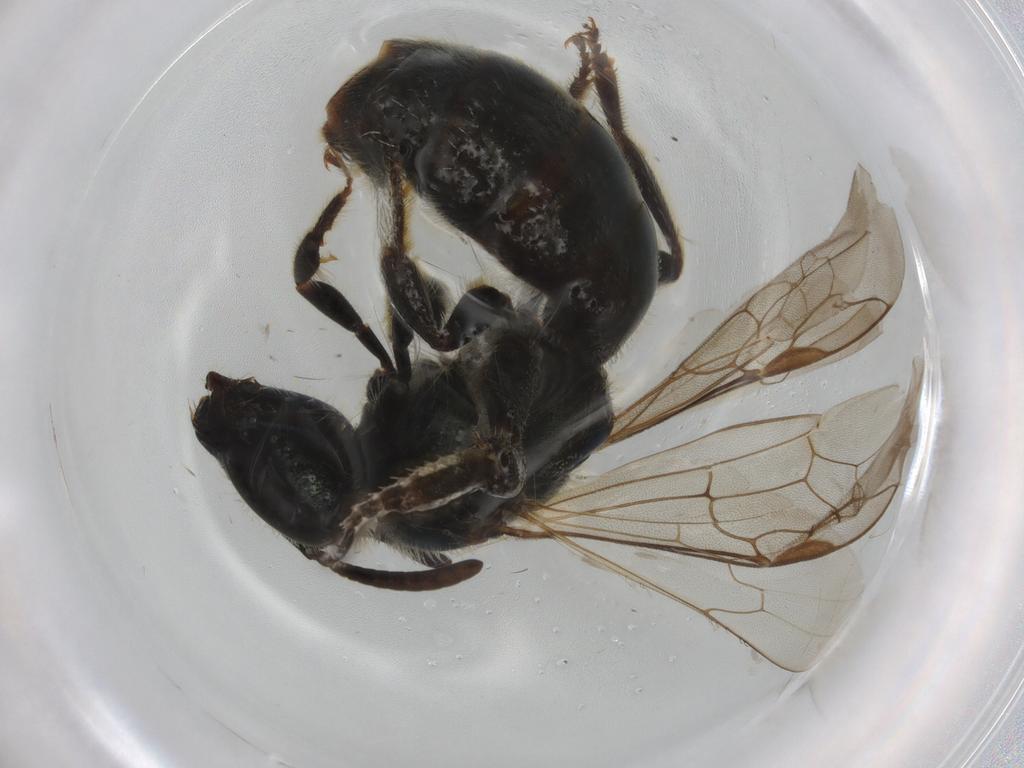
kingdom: Animalia
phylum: Arthropoda
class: Insecta
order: Hymenoptera
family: Halictidae
